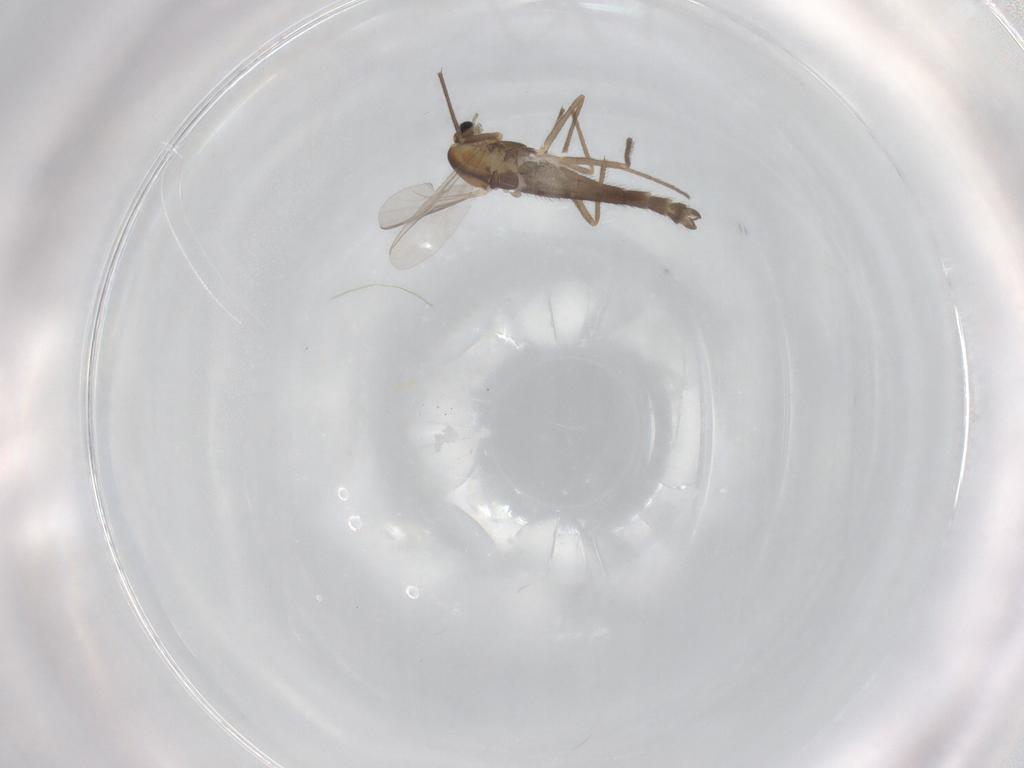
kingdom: Animalia
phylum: Arthropoda
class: Insecta
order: Diptera
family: Chironomidae
